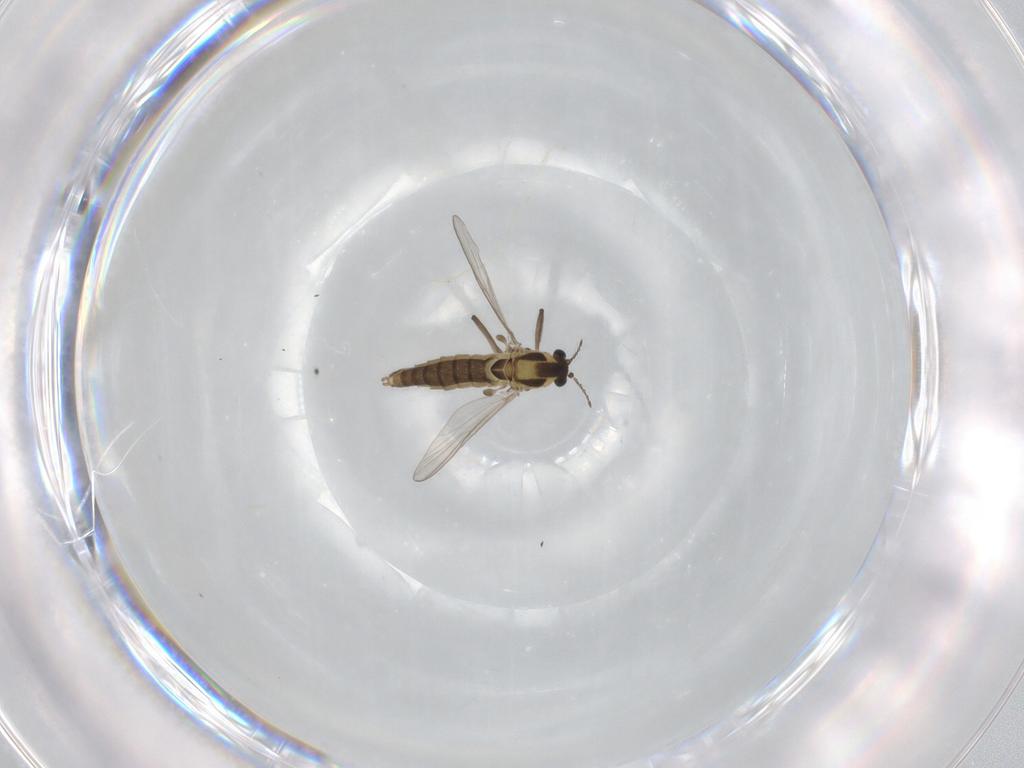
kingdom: Animalia
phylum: Arthropoda
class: Insecta
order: Diptera
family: Chironomidae
